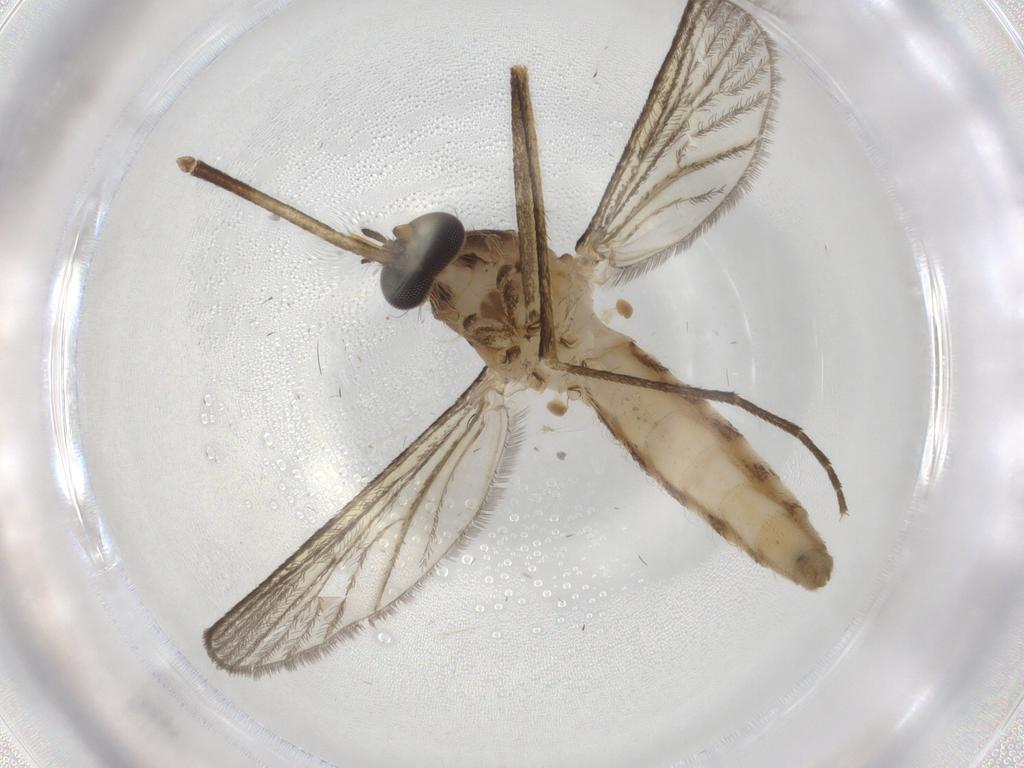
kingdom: Animalia
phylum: Arthropoda
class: Insecta
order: Diptera
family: Cecidomyiidae
